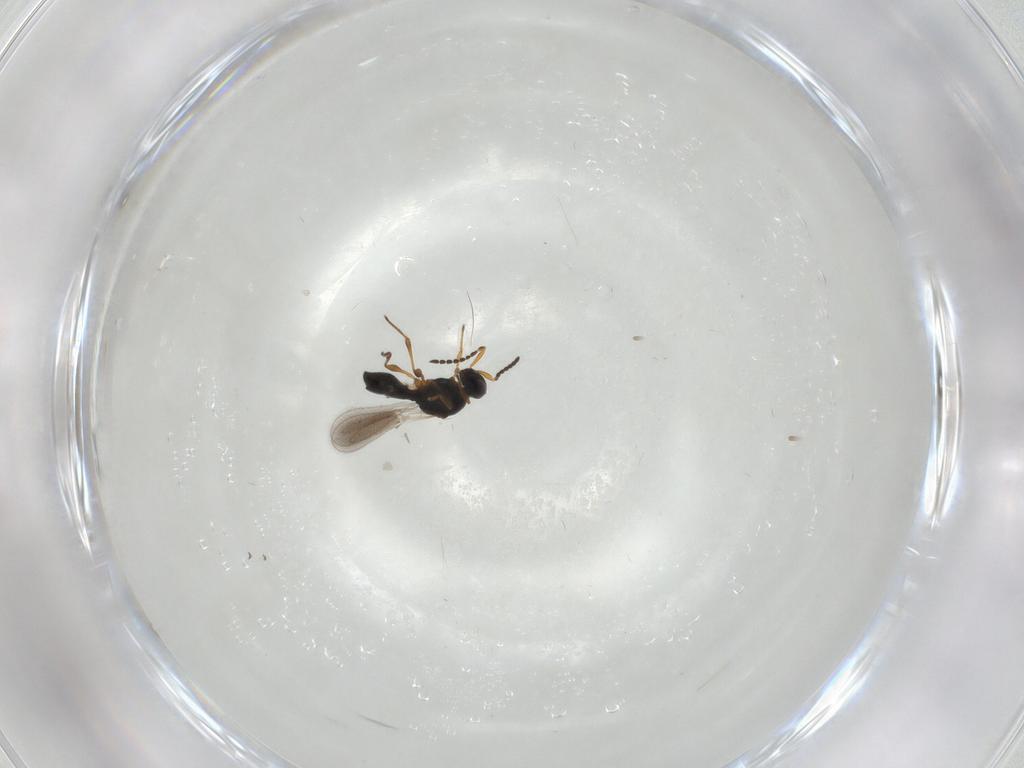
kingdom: Animalia
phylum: Arthropoda
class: Insecta
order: Hymenoptera
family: Platygastridae
